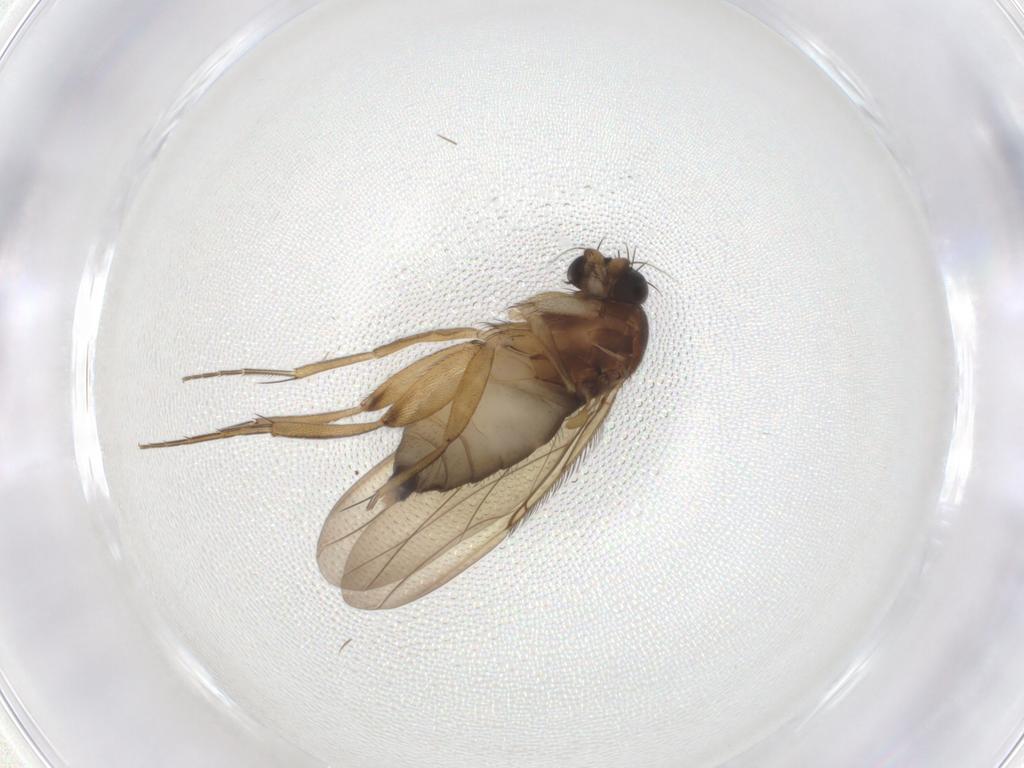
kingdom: Animalia
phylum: Arthropoda
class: Insecta
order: Diptera
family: Phoridae
